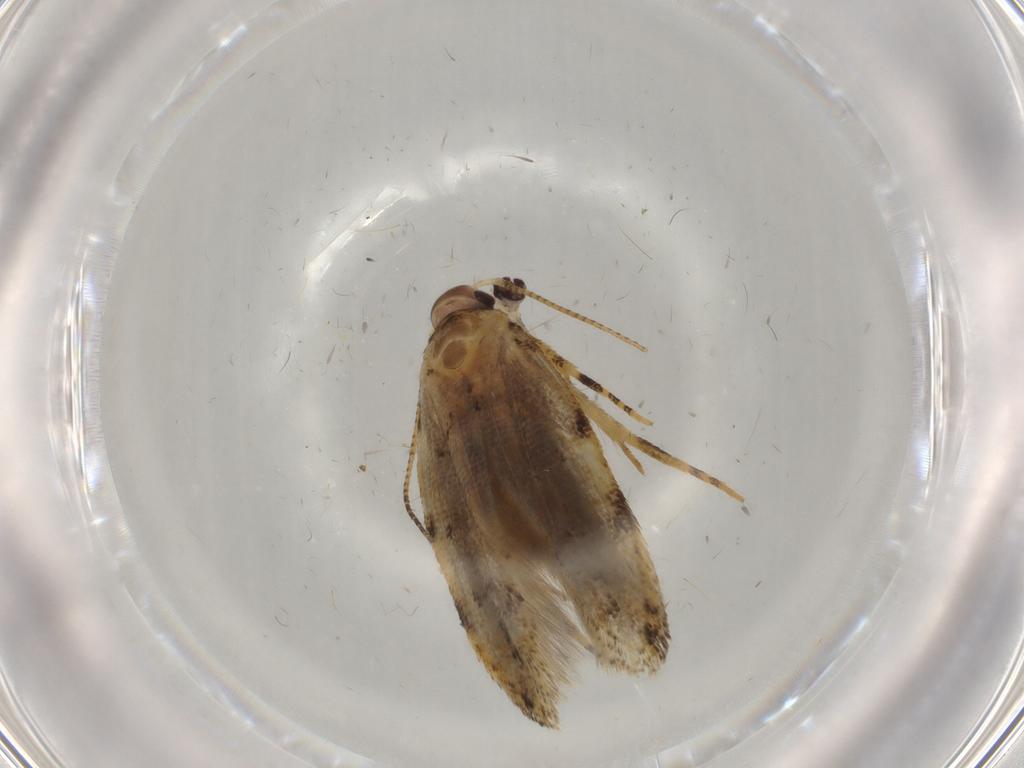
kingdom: Animalia
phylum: Arthropoda
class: Insecta
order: Lepidoptera
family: Gelechiidae
